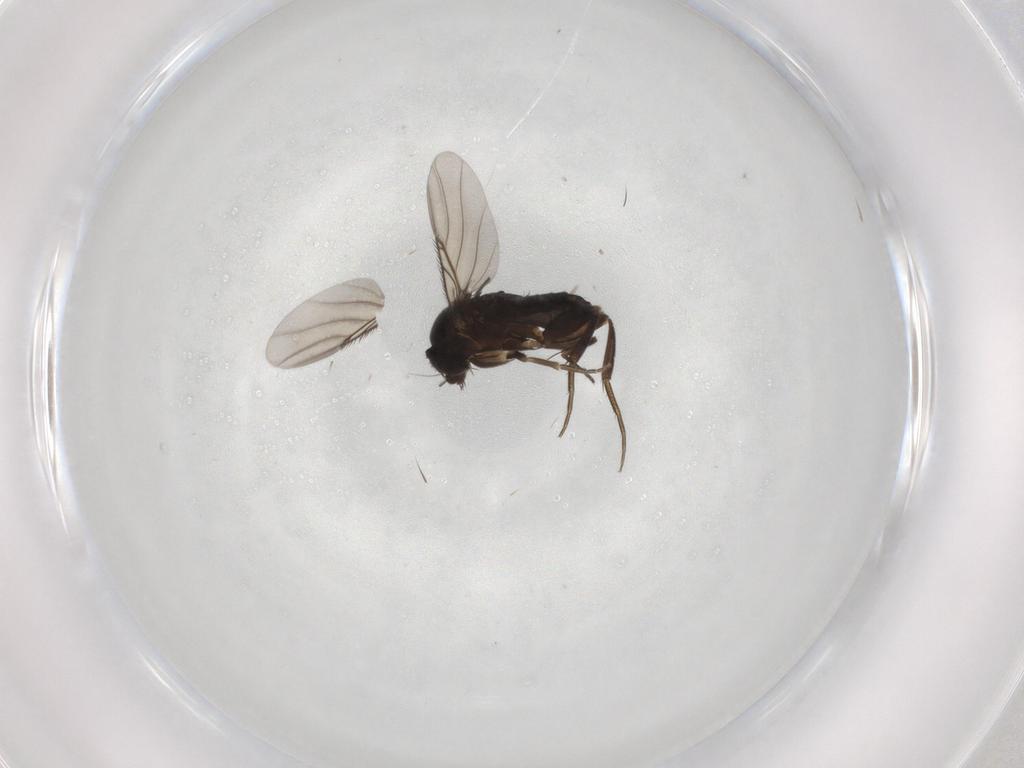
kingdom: Animalia
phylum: Arthropoda
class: Insecta
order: Diptera
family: Phoridae
